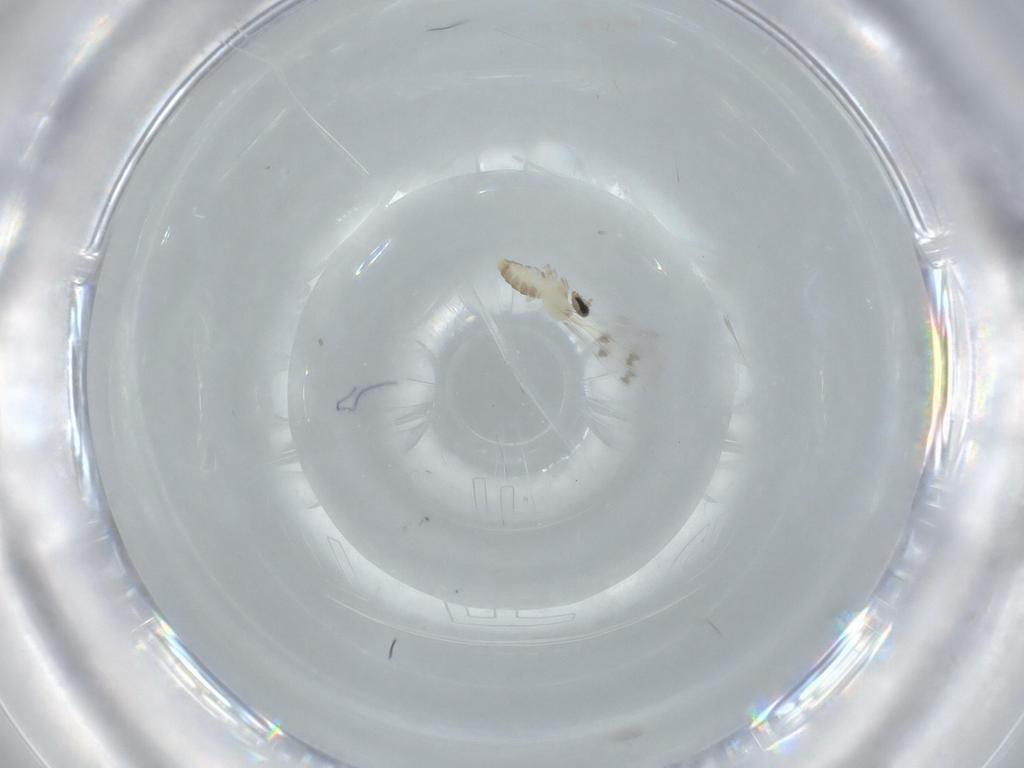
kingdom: Animalia
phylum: Arthropoda
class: Insecta
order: Diptera
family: Cecidomyiidae
